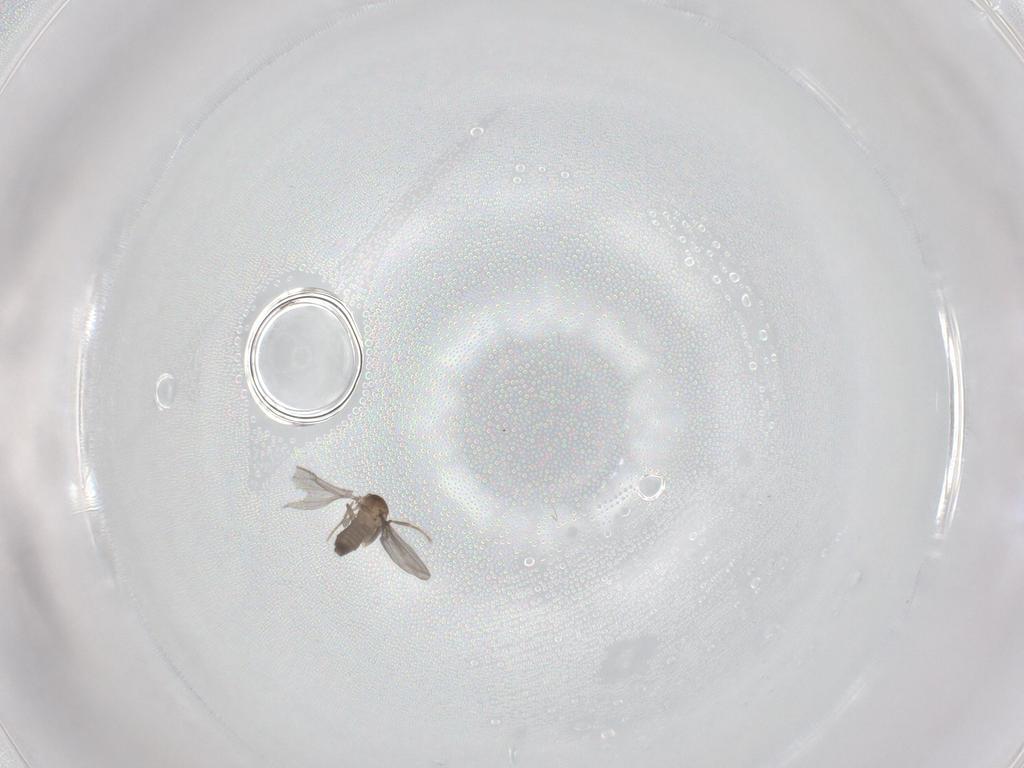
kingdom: Animalia
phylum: Arthropoda
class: Insecta
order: Diptera
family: Phoridae
